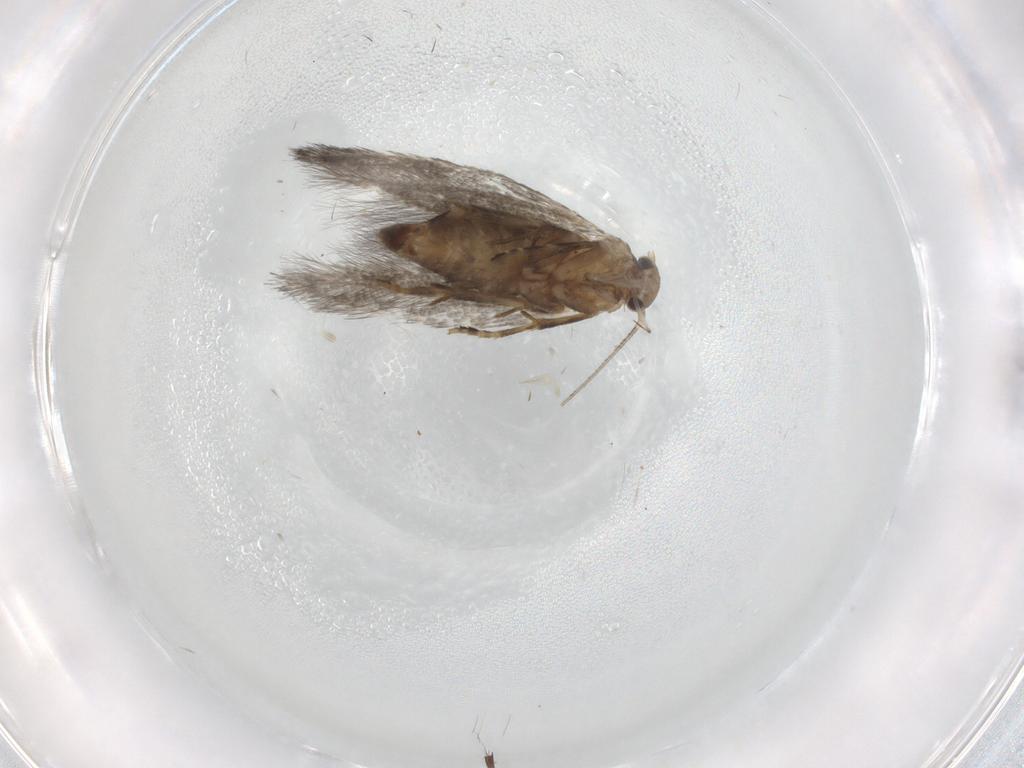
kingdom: Animalia
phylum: Arthropoda
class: Insecta
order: Lepidoptera
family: Elachistidae
